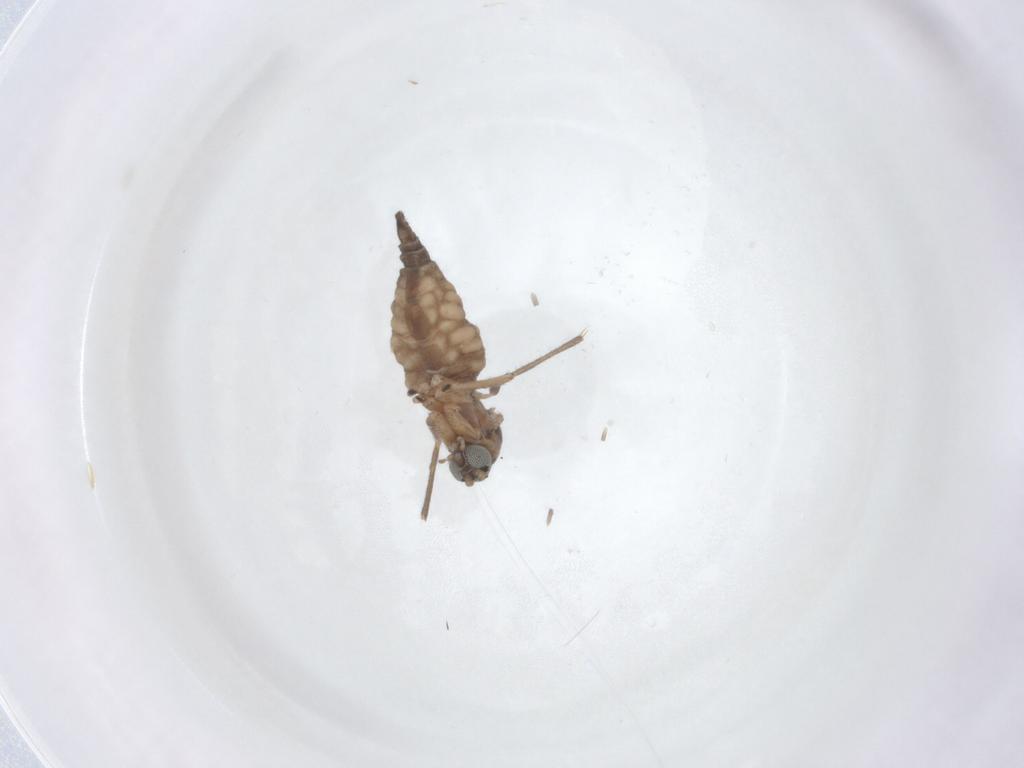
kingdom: Animalia
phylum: Arthropoda
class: Insecta
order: Diptera
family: Sciaridae
